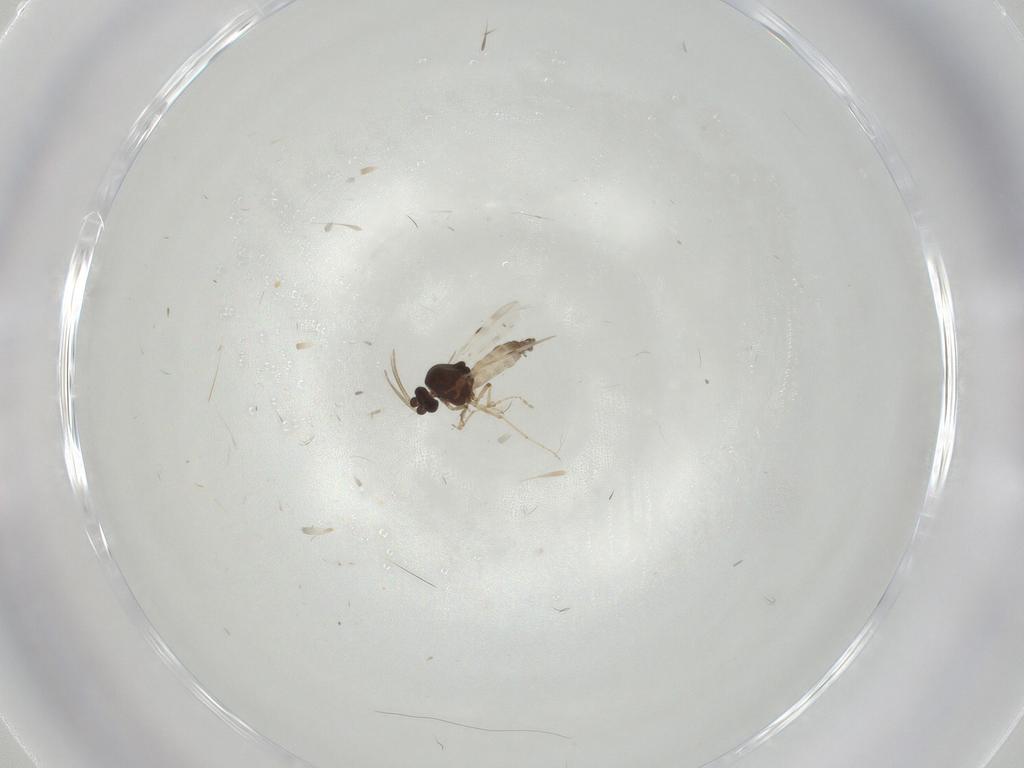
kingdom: Animalia
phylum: Arthropoda
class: Insecta
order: Diptera
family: Cecidomyiidae
